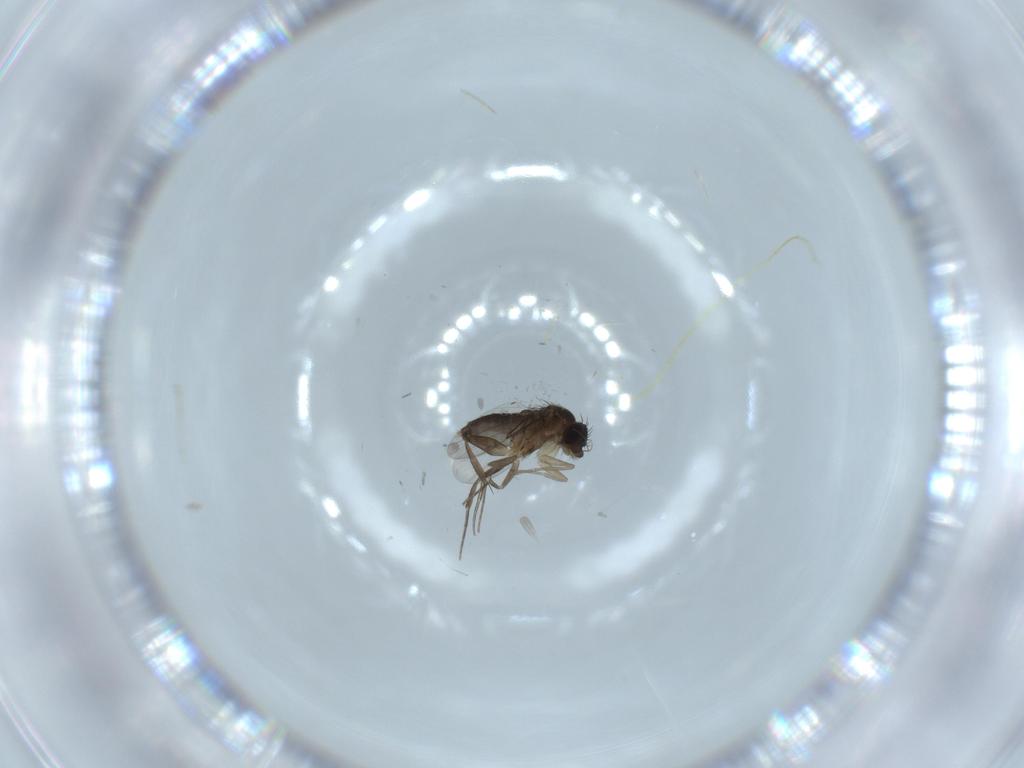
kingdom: Animalia
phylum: Arthropoda
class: Insecta
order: Diptera
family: Phoridae
